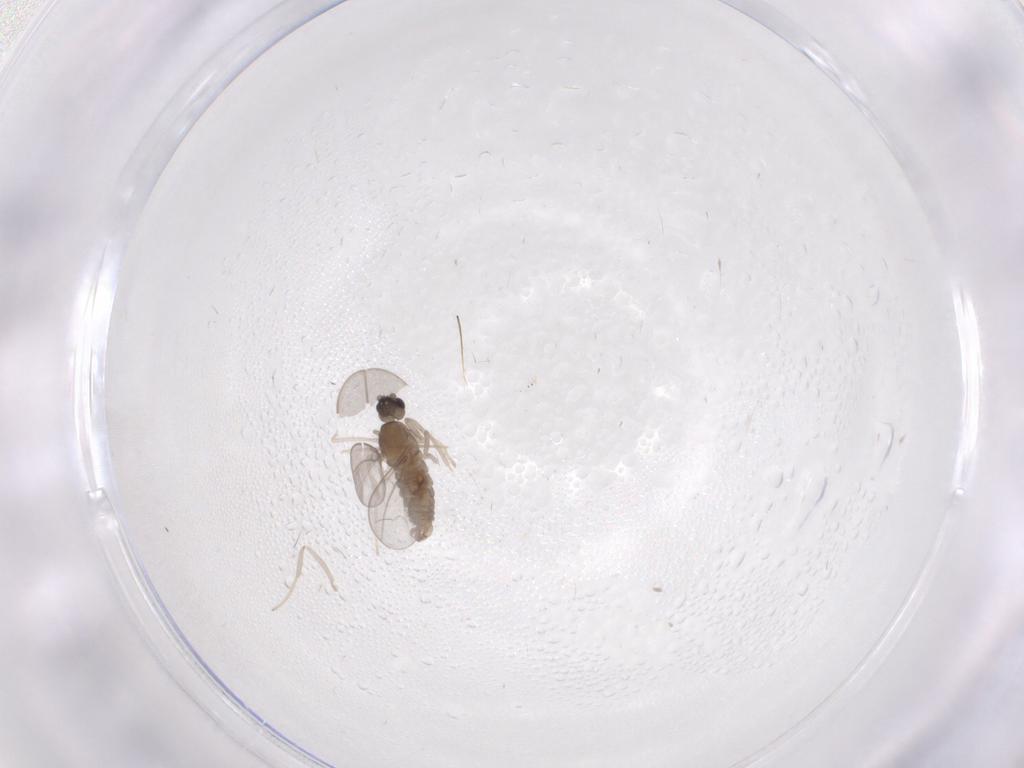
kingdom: Animalia
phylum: Arthropoda
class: Insecta
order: Diptera
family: Cecidomyiidae
